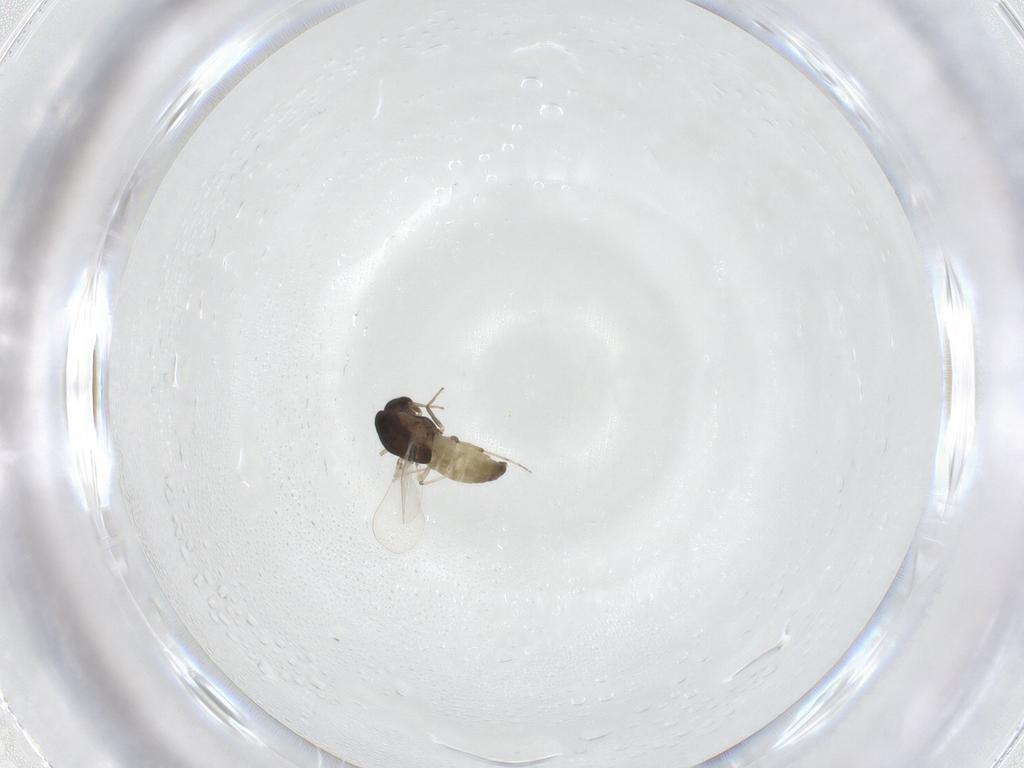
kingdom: Animalia
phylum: Arthropoda
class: Insecta
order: Diptera
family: Chironomidae
